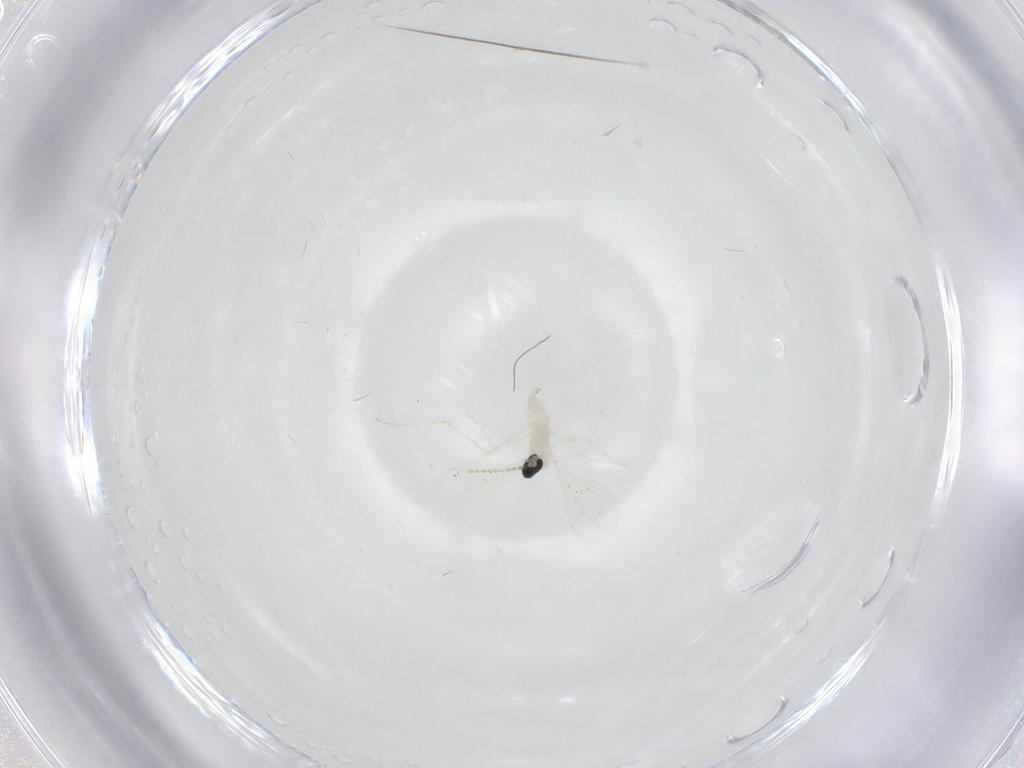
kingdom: Animalia
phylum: Arthropoda
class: Insecta
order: Diptera
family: Cecidomyiidae
